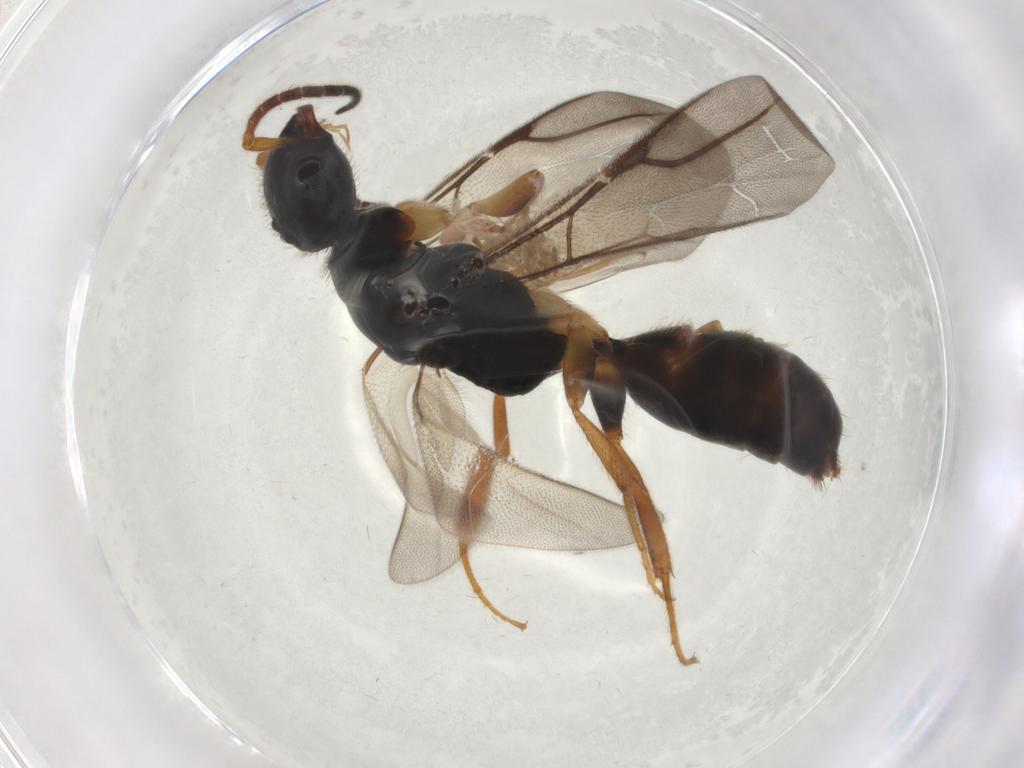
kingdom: Animalia
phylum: Arthropoda
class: Insecta
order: Hymenoptera
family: Bethylidae
